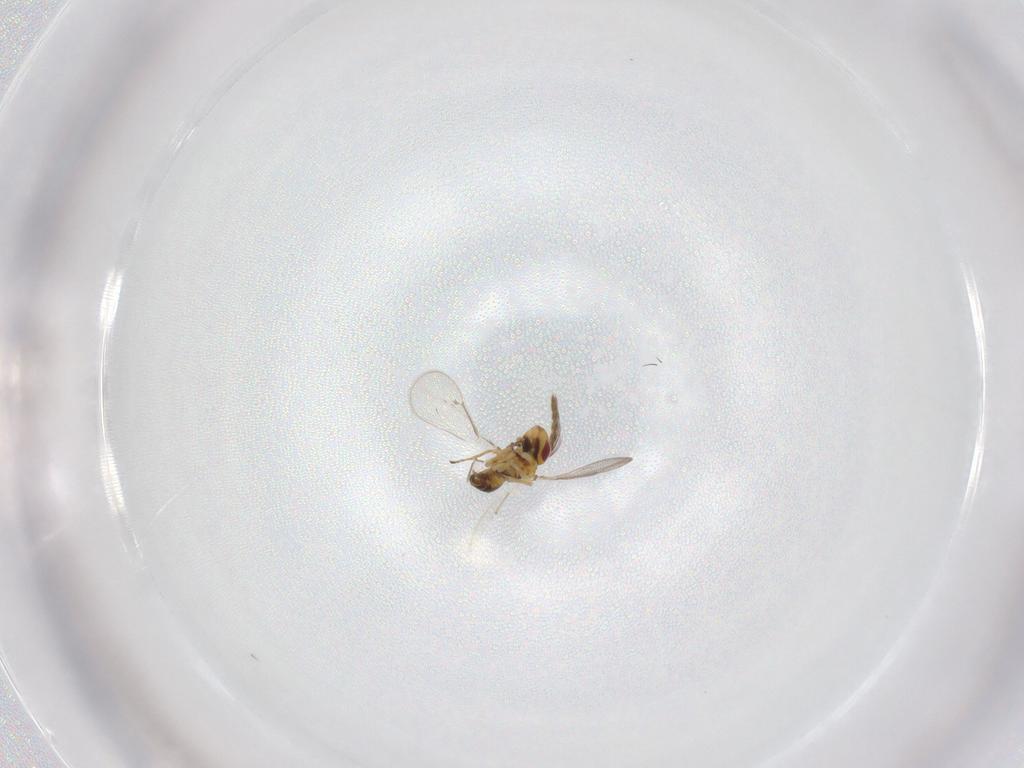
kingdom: Animalia
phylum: Arthropoda
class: Insecta
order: Hymenoptera
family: Eulophidae
